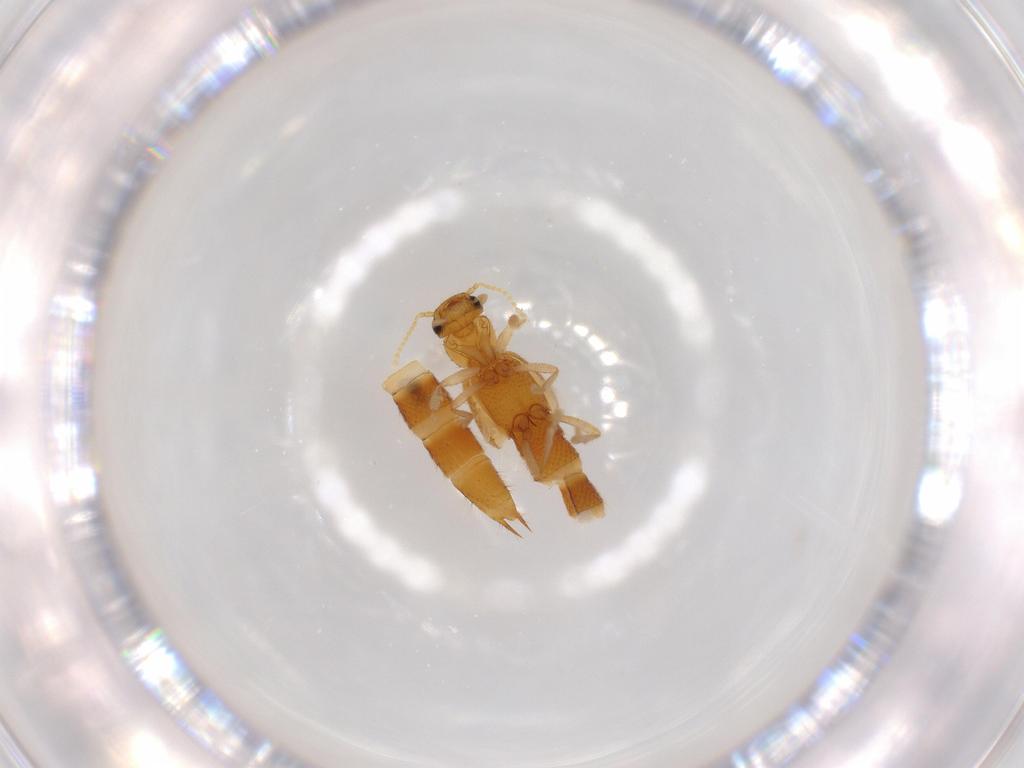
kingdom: Animalia
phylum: Arthropoda
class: Insecta
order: Coleoptera
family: Staphylinidae
